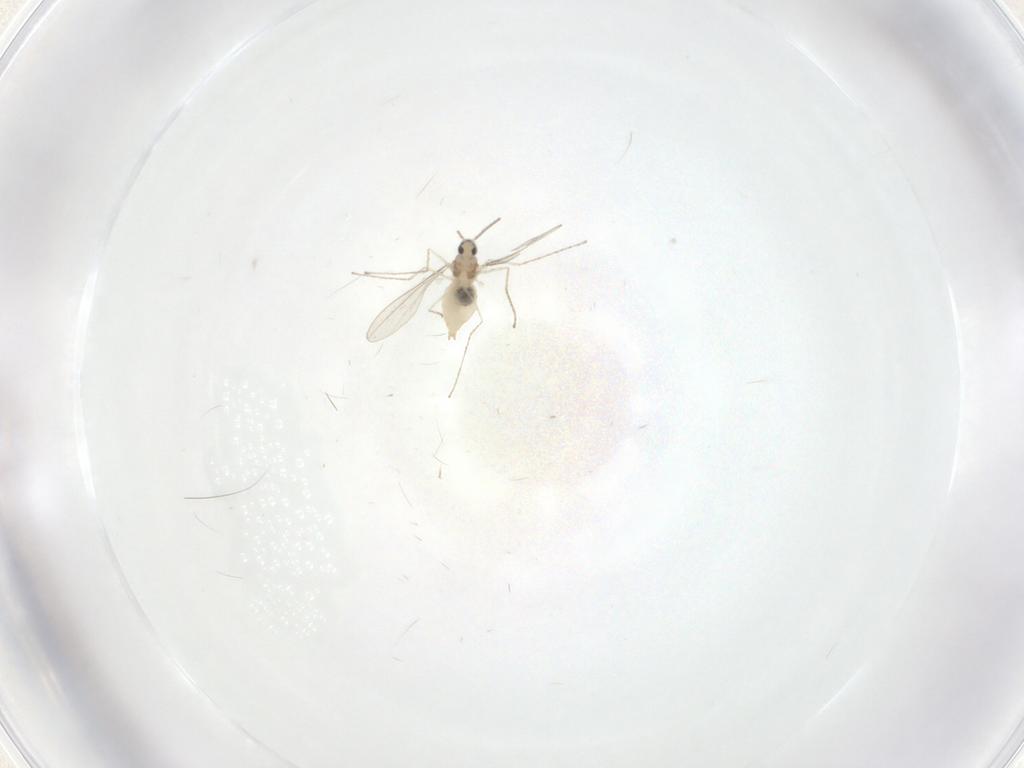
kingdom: Animalia
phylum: Arthropoda
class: Insecta
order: Diptera
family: Cecidomyiidae
